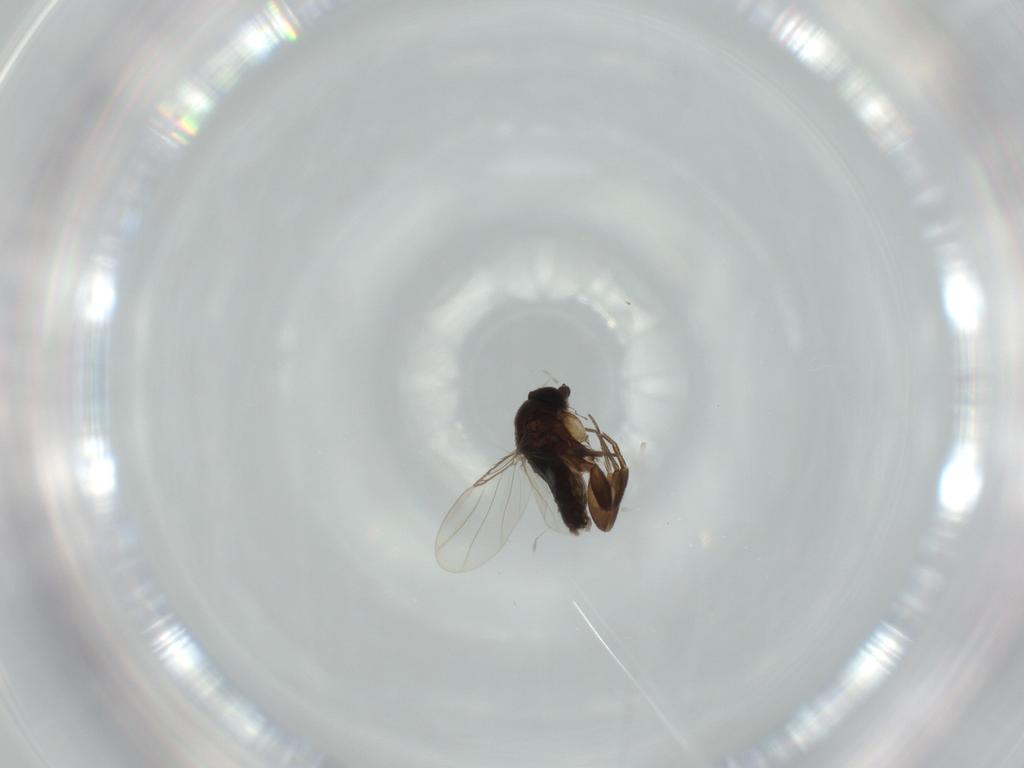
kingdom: Animalia
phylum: Arthropoda
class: Insecta
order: Diptera
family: Phoridae
